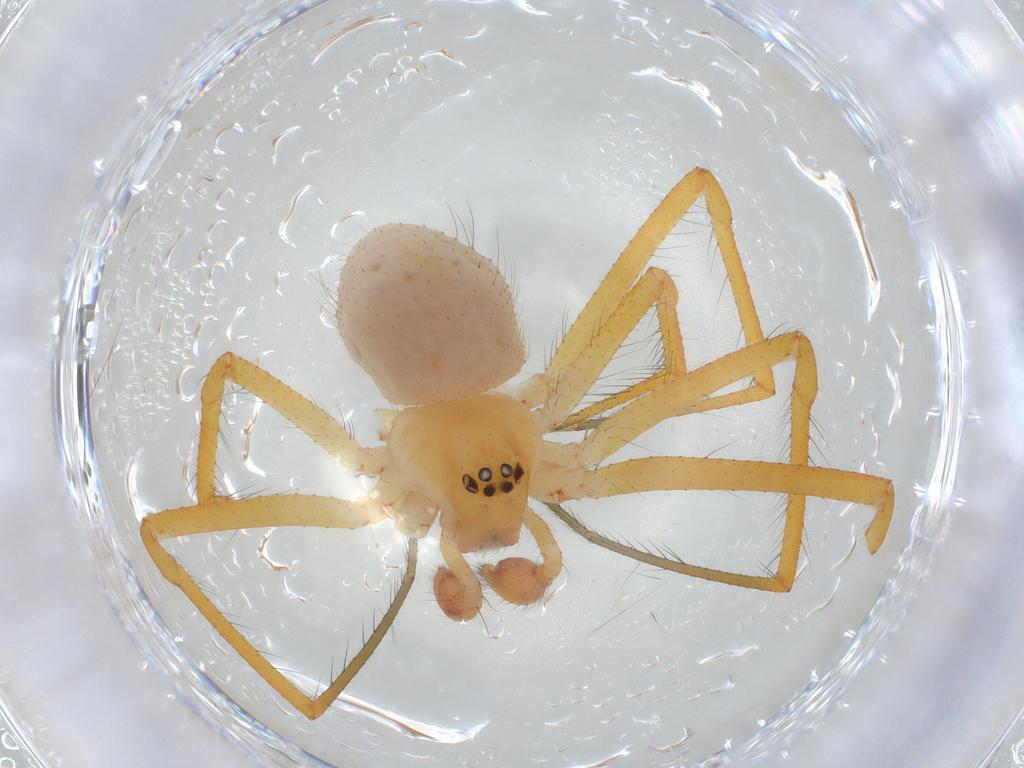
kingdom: Animalia
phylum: Arthropoda
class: Arachnida
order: Araneae
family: Theridiidae
